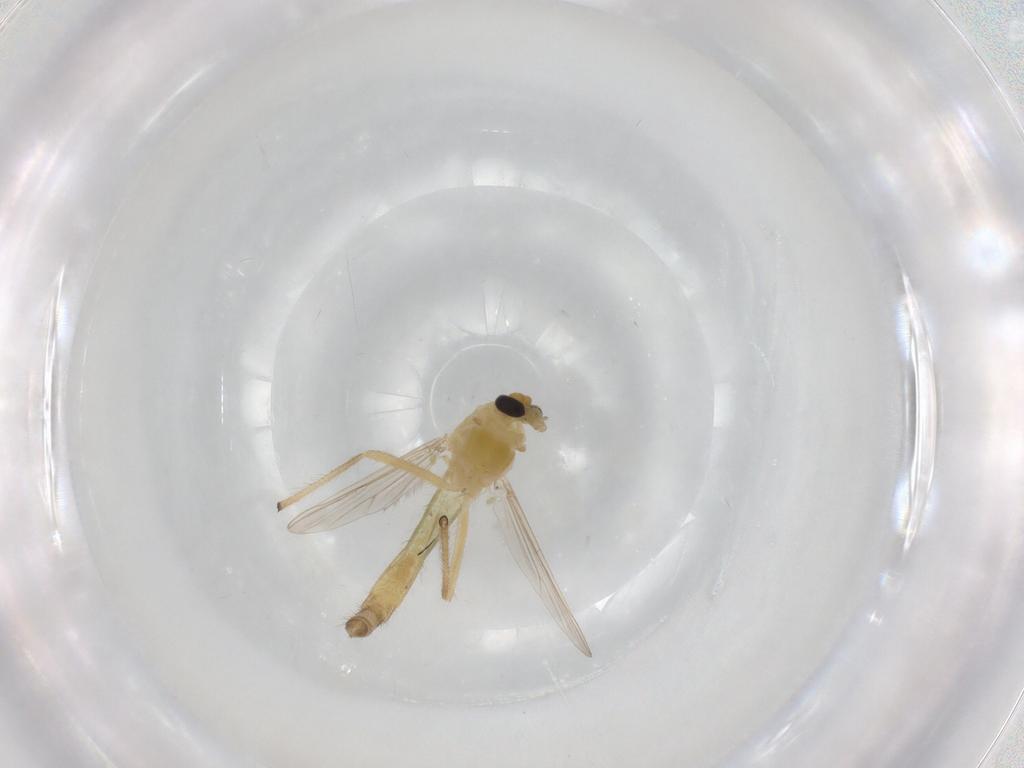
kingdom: Animalia
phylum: Arthropoda
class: Insecta
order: Diptera
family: Chironomidae
